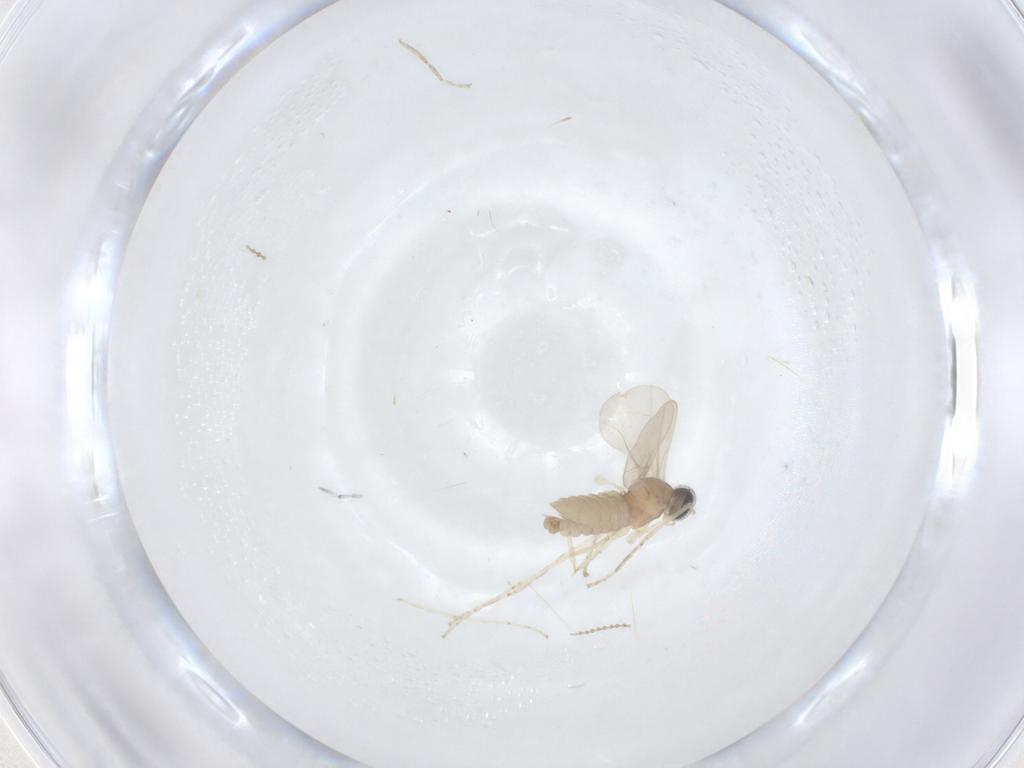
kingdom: Animalia
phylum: Arthropoda
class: Insecta
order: Diptera
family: Cecidomyiidae
